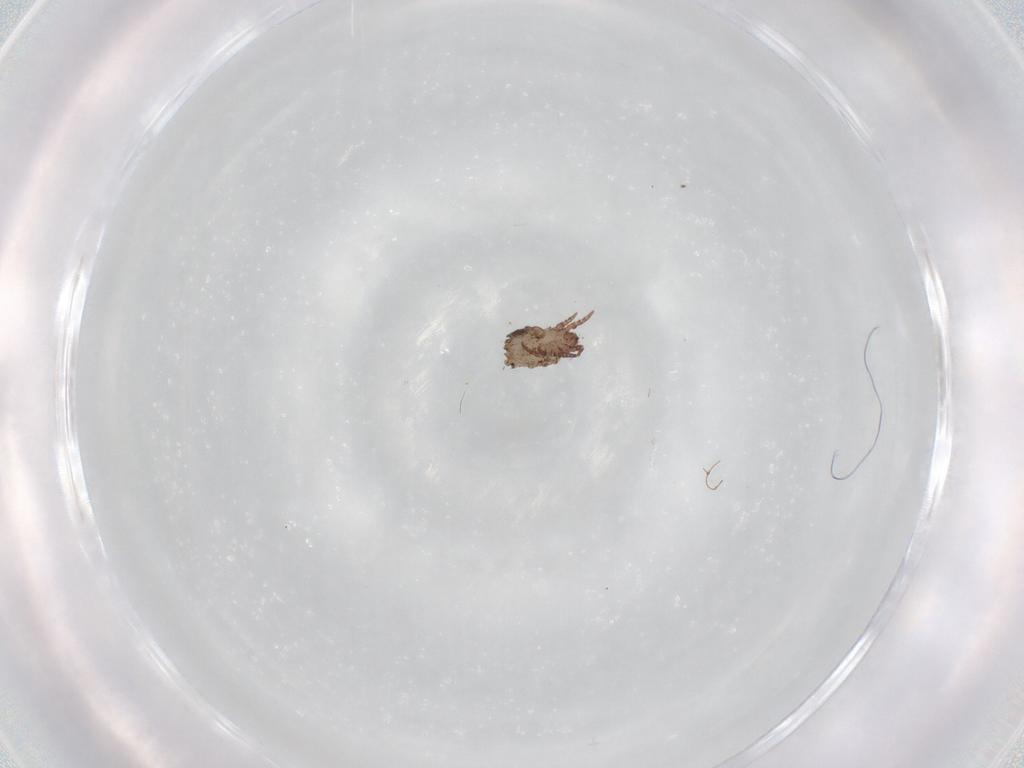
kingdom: Animalia
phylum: Arthropoda
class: Arachnida
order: Sarcoptiformes
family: Crotoniidae
